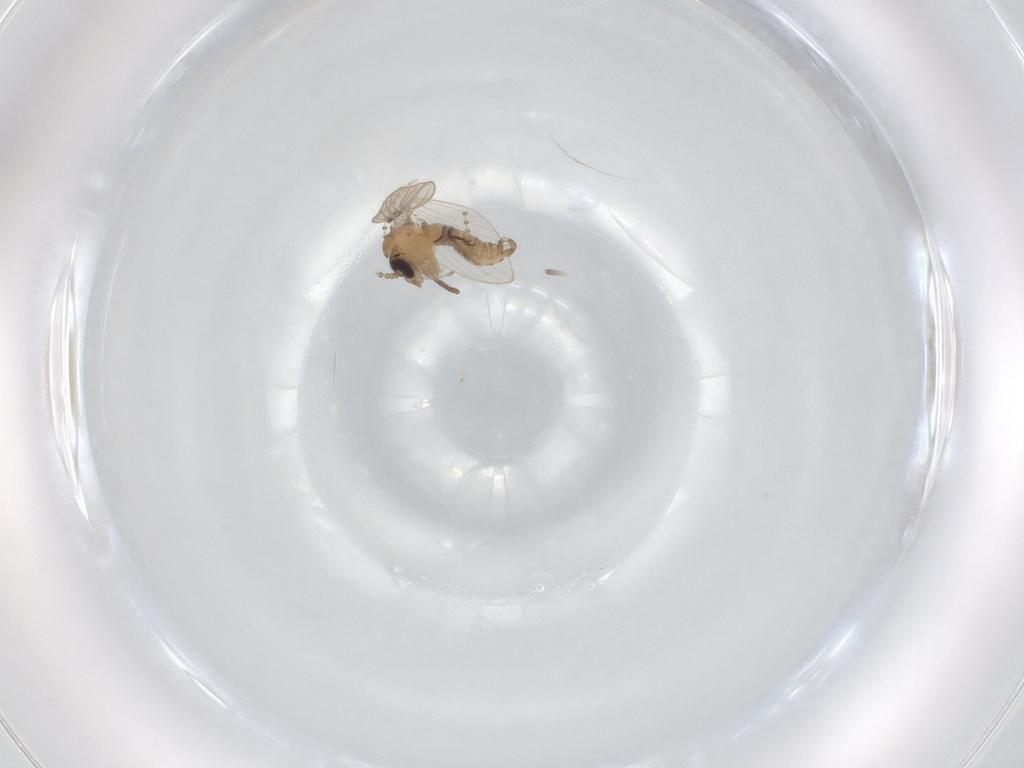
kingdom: Animalia
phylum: Arthropoda
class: Insecta
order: Diptera
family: Psychodidae
